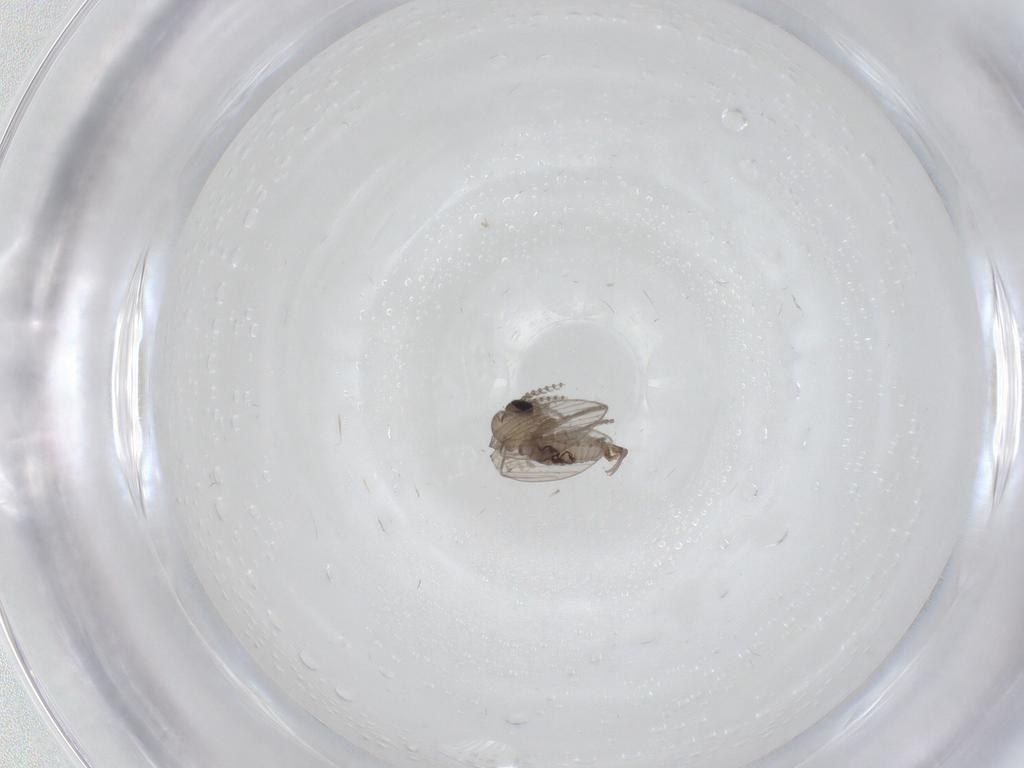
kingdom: Animalia
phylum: Arthropoda
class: Insecta
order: Diptera
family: Psychodidae
